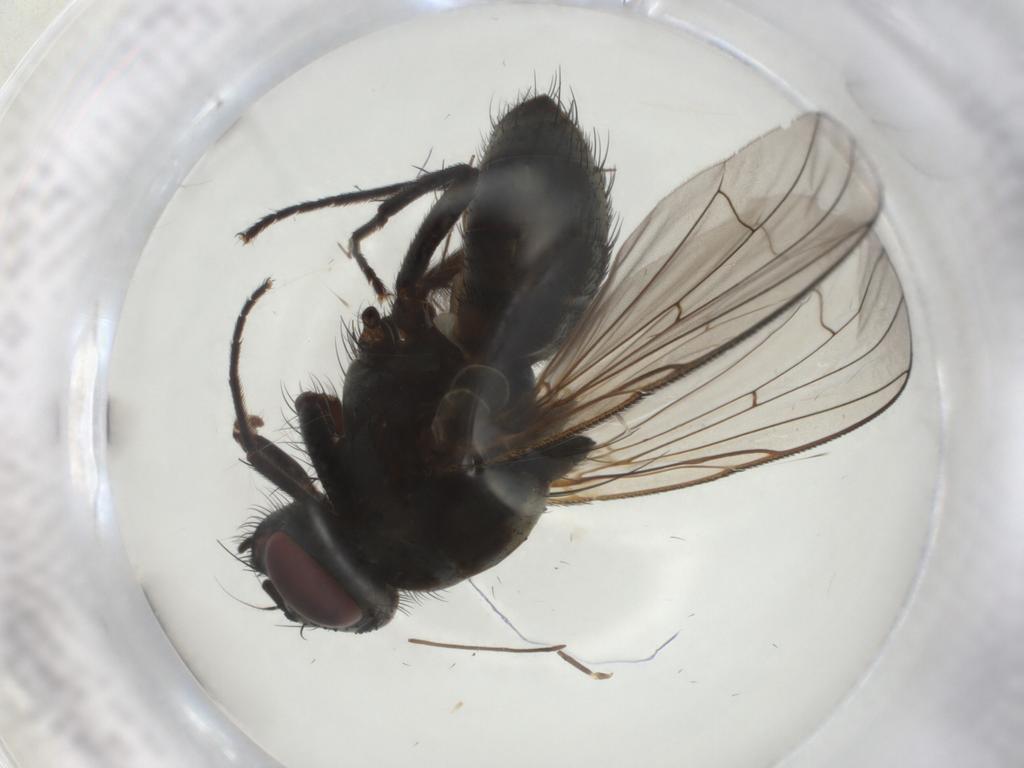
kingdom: Animalia
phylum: Arthropoda
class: Insecta
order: Diptera
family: Muscidae
